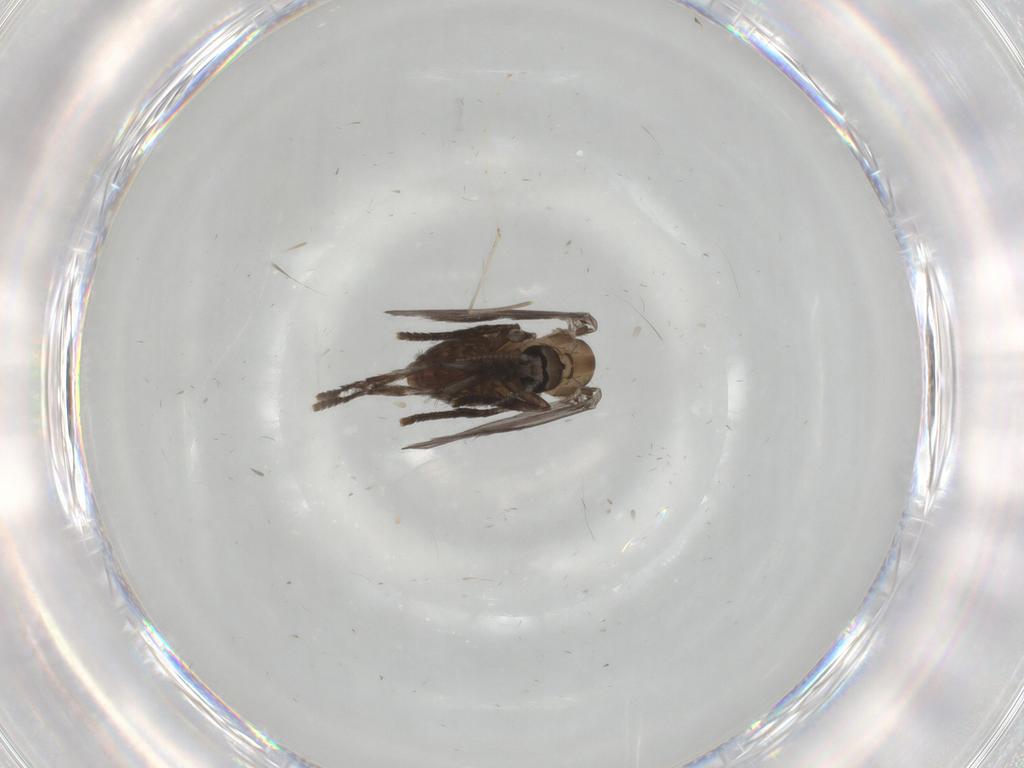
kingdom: Animalia
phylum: Arthropoda
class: Insecta
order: Diptera
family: Psychodidae
